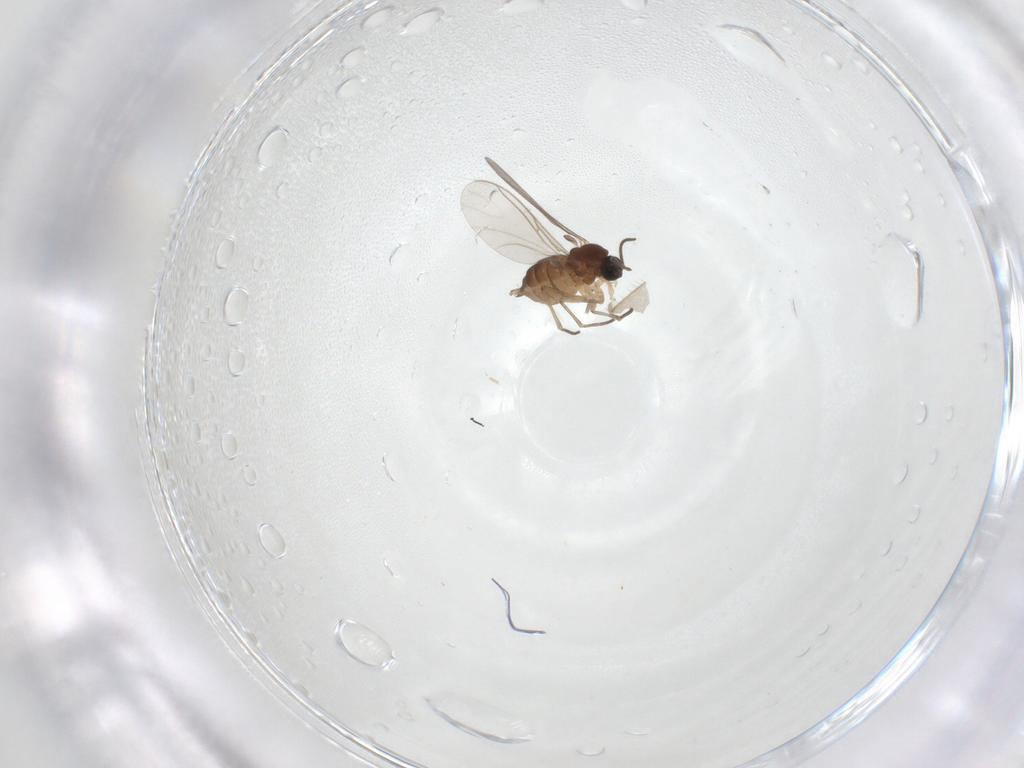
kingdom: Animalia
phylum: Arthropoda
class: Insecta
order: Diptera
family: Sciaridae
